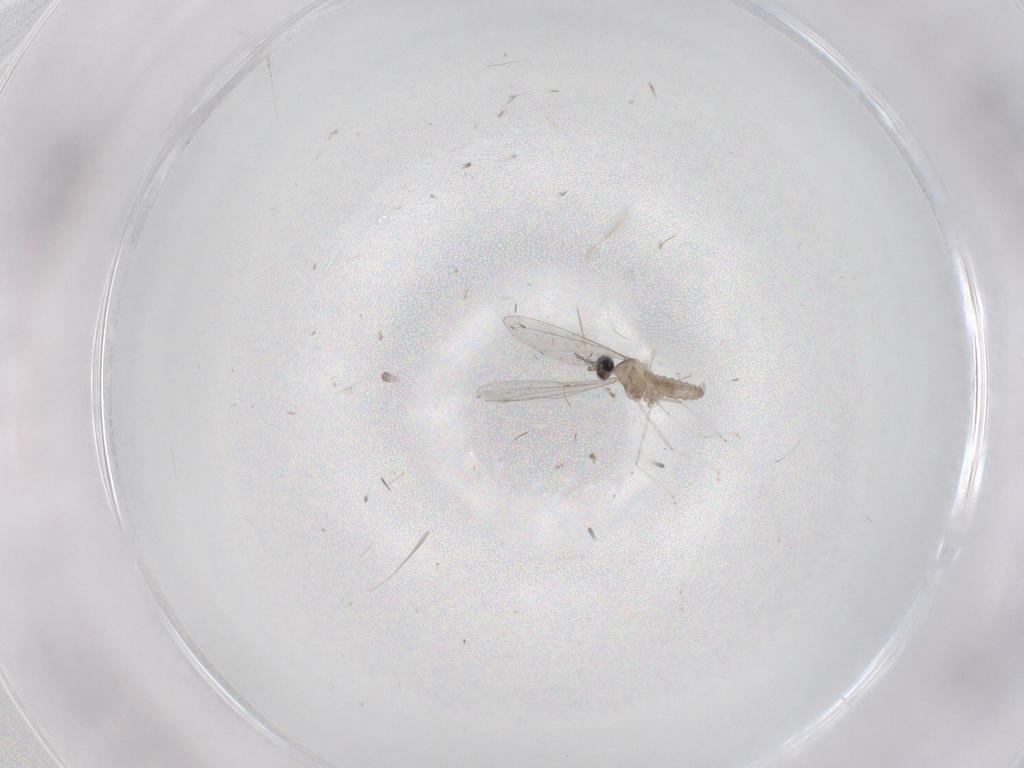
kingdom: Animalia
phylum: Arthropoda
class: Insecta
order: Diptera
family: Cecidomyiidae
